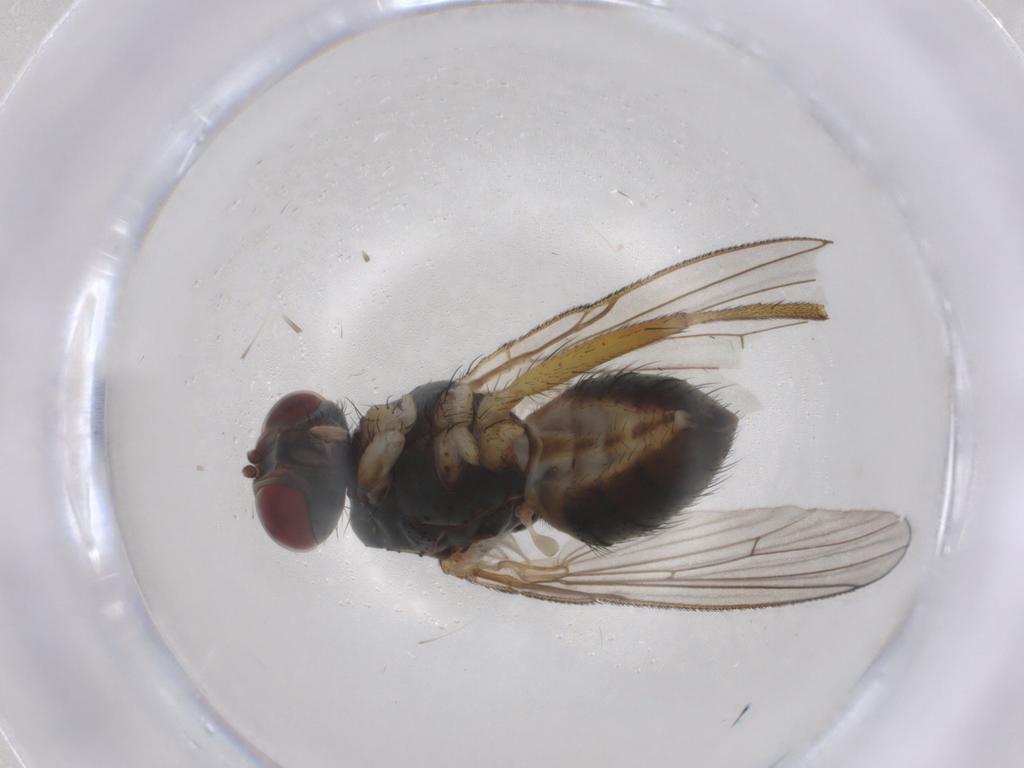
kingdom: Animalia
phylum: Arthropoda
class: Insecta
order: Diptera
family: Muscidae
